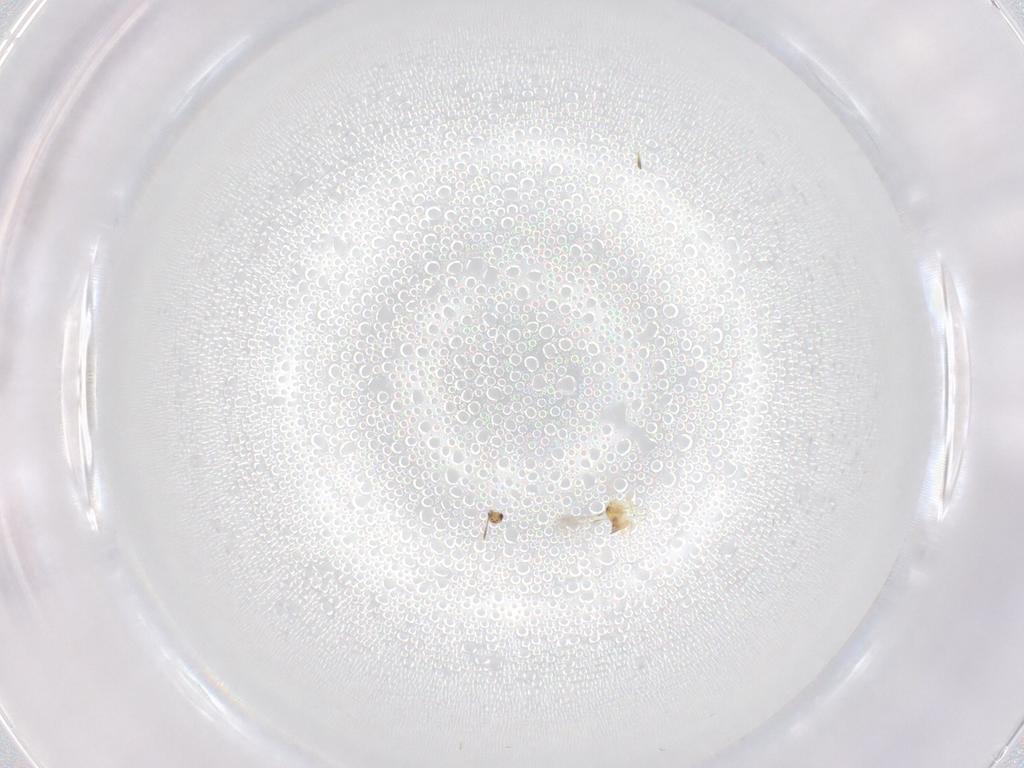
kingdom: Animalia
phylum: Arthropoda
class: Insecta
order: Hymenoptera
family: Mymaridae
